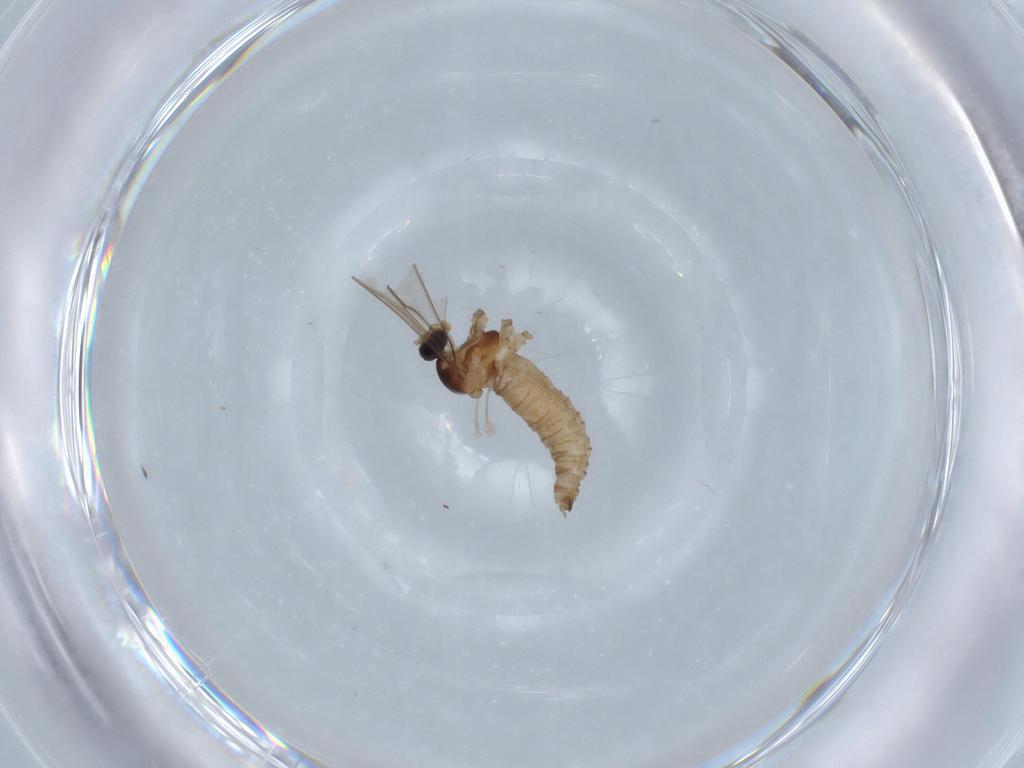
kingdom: Animalia
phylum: Arthropoda
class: Insecta
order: Diptera
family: Cecidomyiidae
